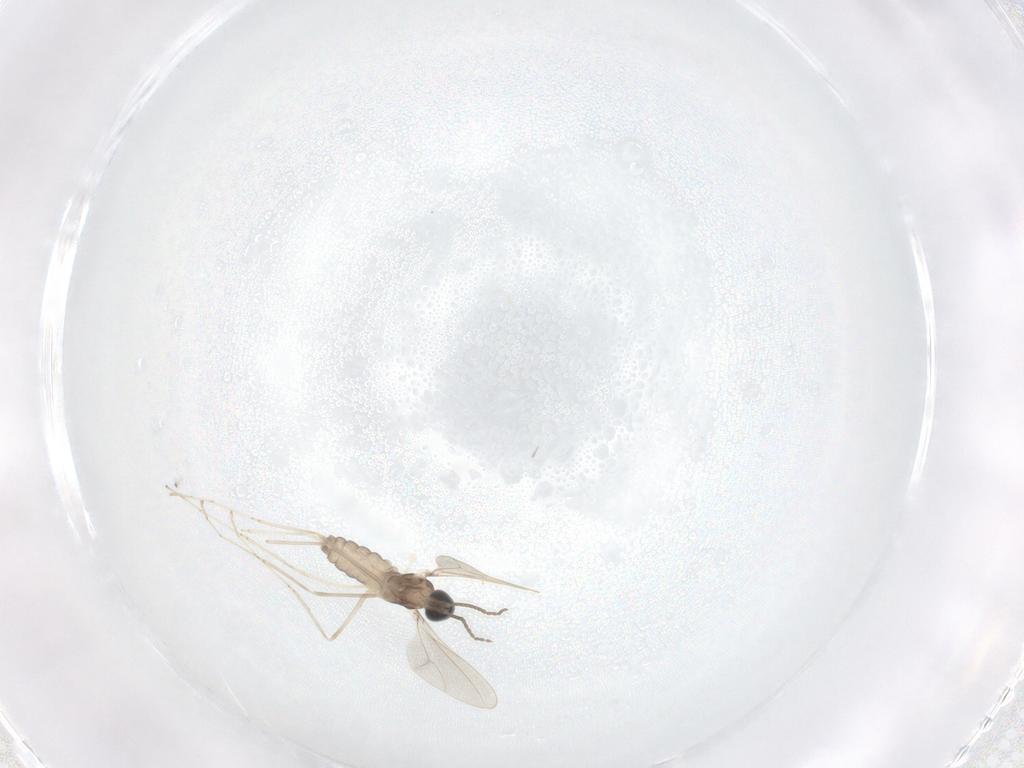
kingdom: Animalia
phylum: Arthropoda
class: Insecta
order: Diptera
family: Cecidomyiidae
